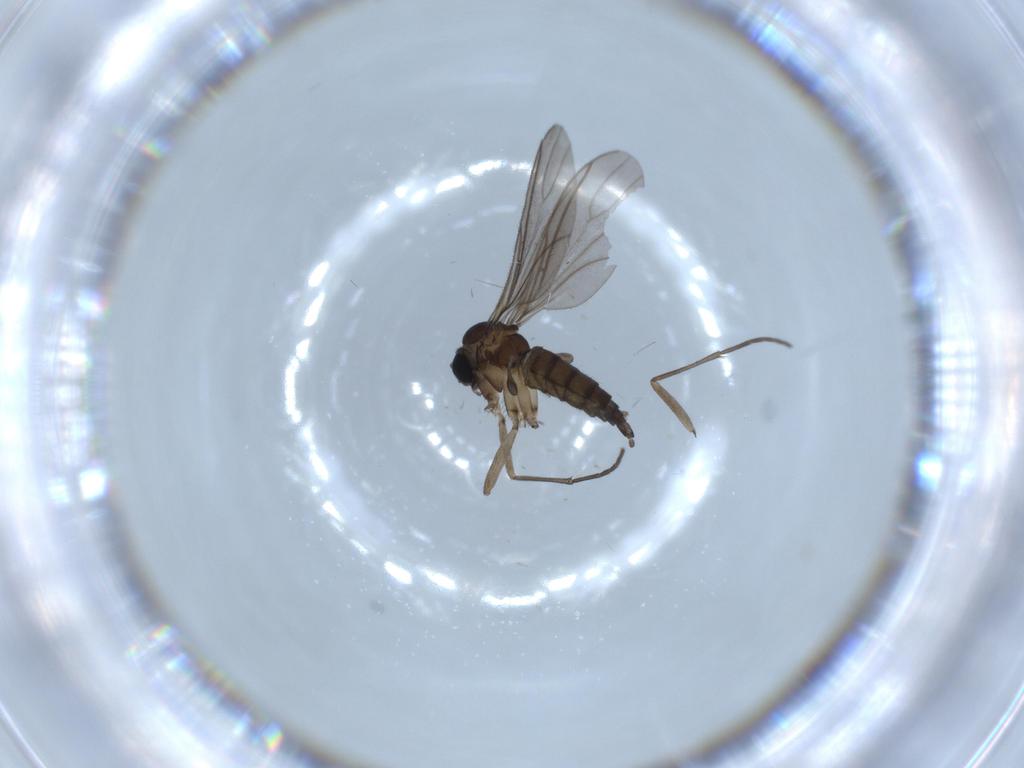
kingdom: Animalia
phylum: Arthropoda
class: Insecta
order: Diptera
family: Sciaridae
